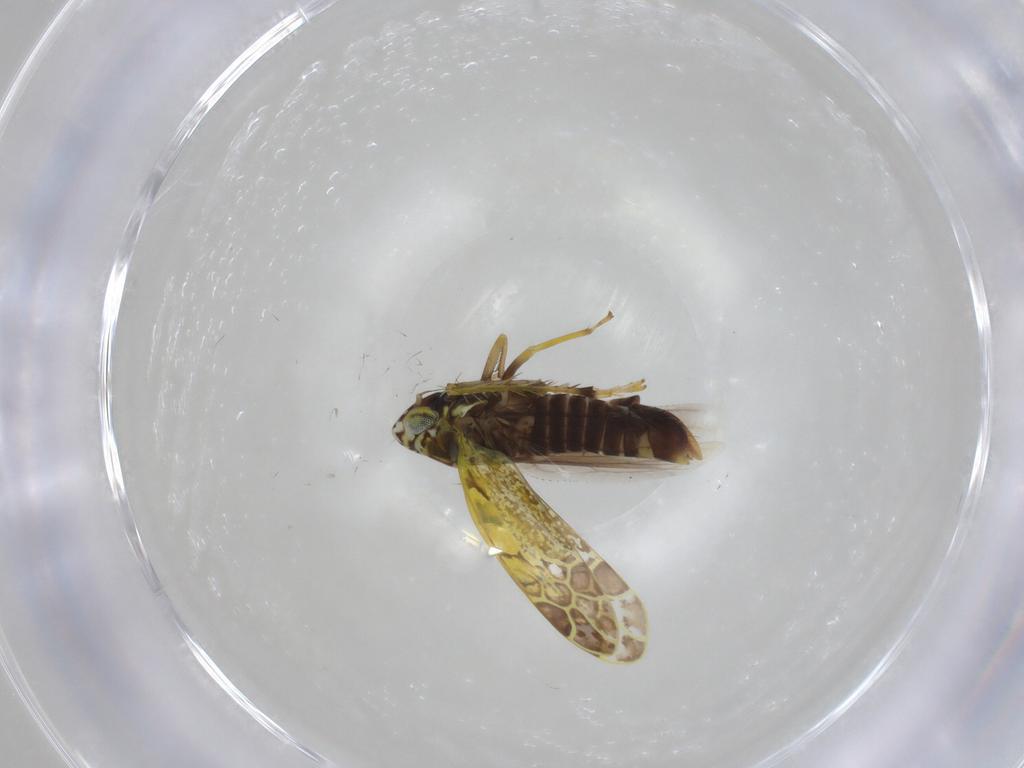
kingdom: Animalia
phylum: Arthropoda
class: Insecta
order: Hemiptera
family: Cicadellidae
